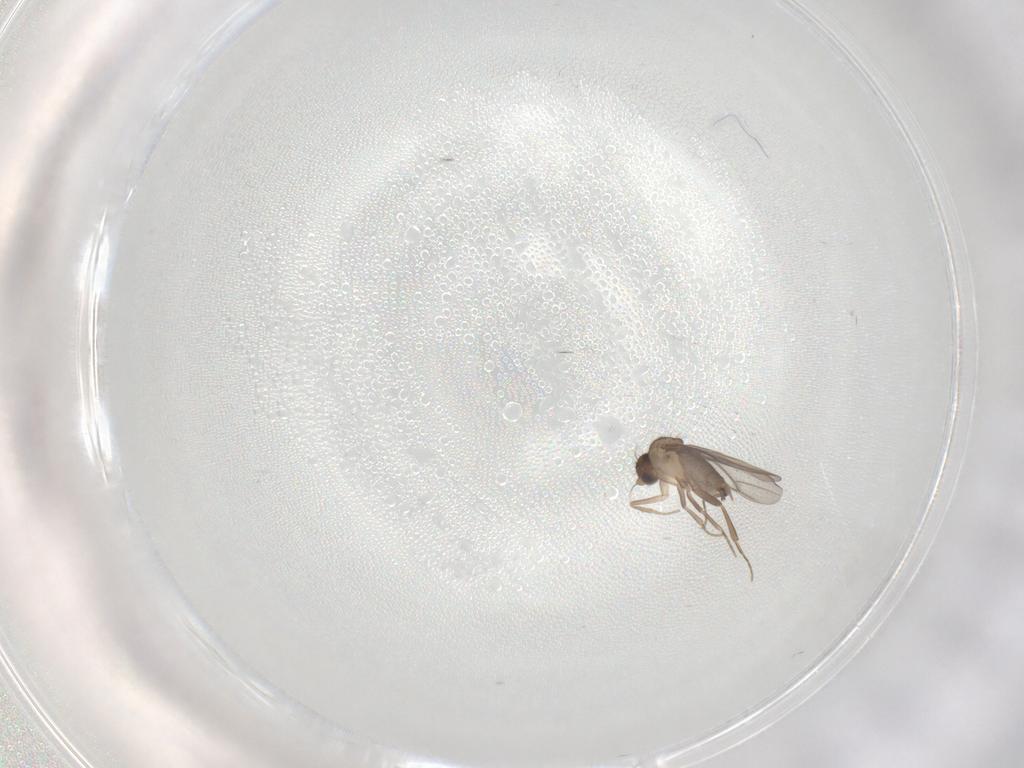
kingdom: Animalia
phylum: Arthropoda
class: Insecta
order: Diptera
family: Cecidomyiidae
